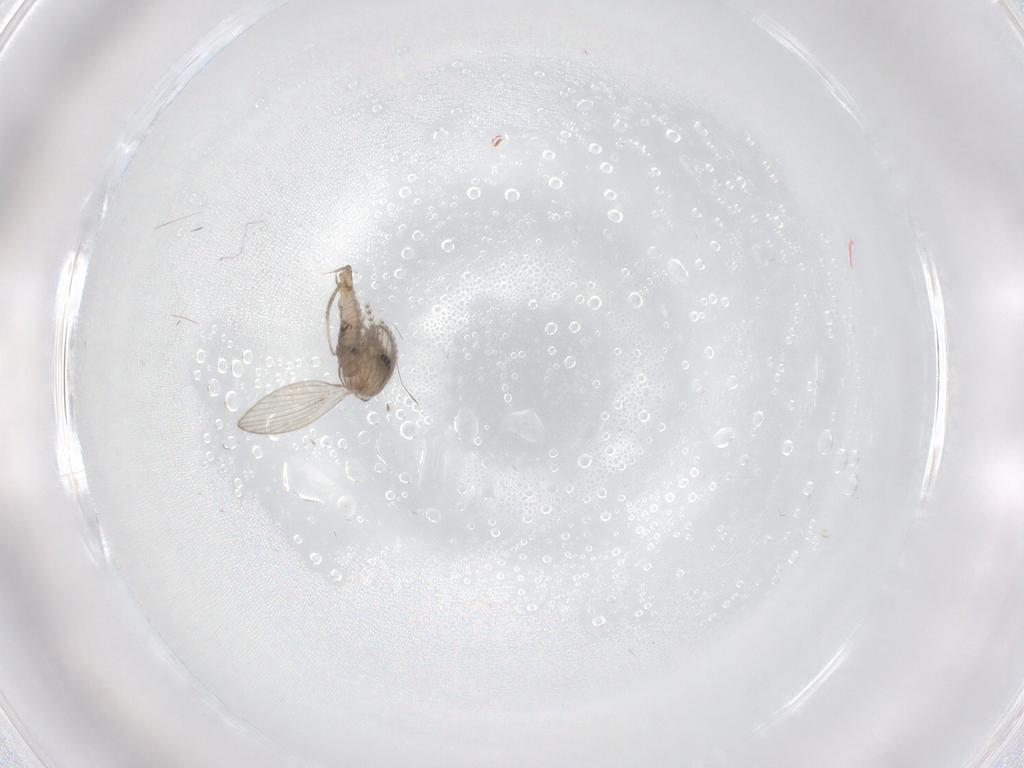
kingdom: Animalia
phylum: Arthropoda
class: Insecta
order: Diptera
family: Psychodidae
